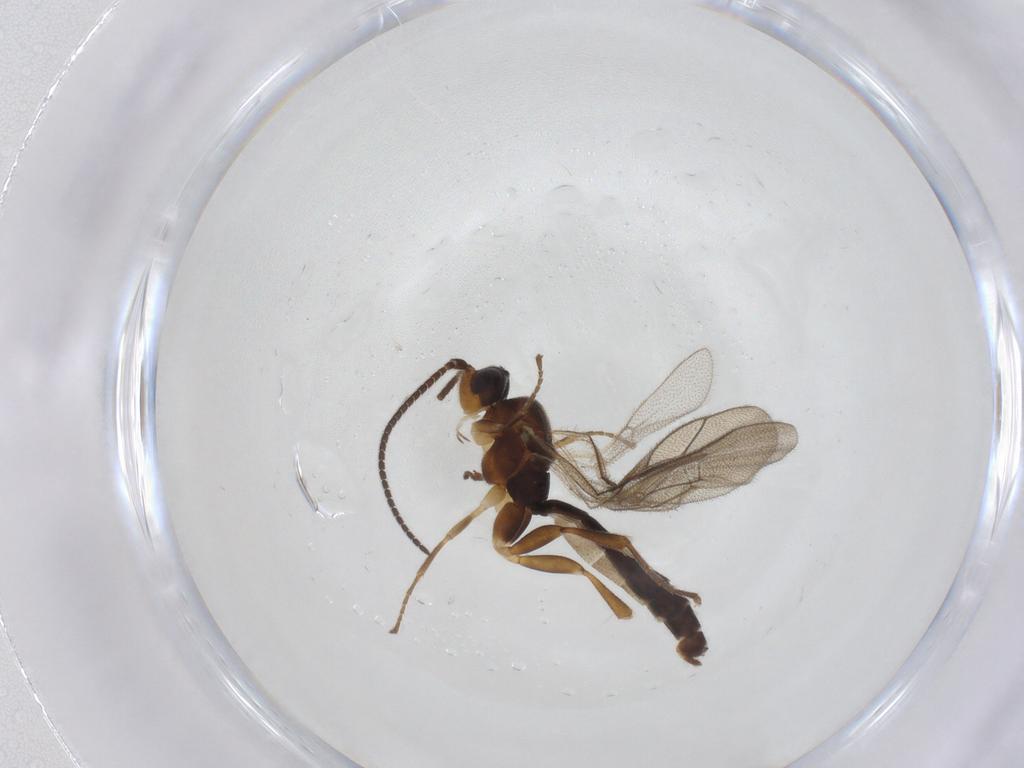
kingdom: Animalia
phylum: Arthropoda
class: Insecta
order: Hymenoptera
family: Ichneumonidae
